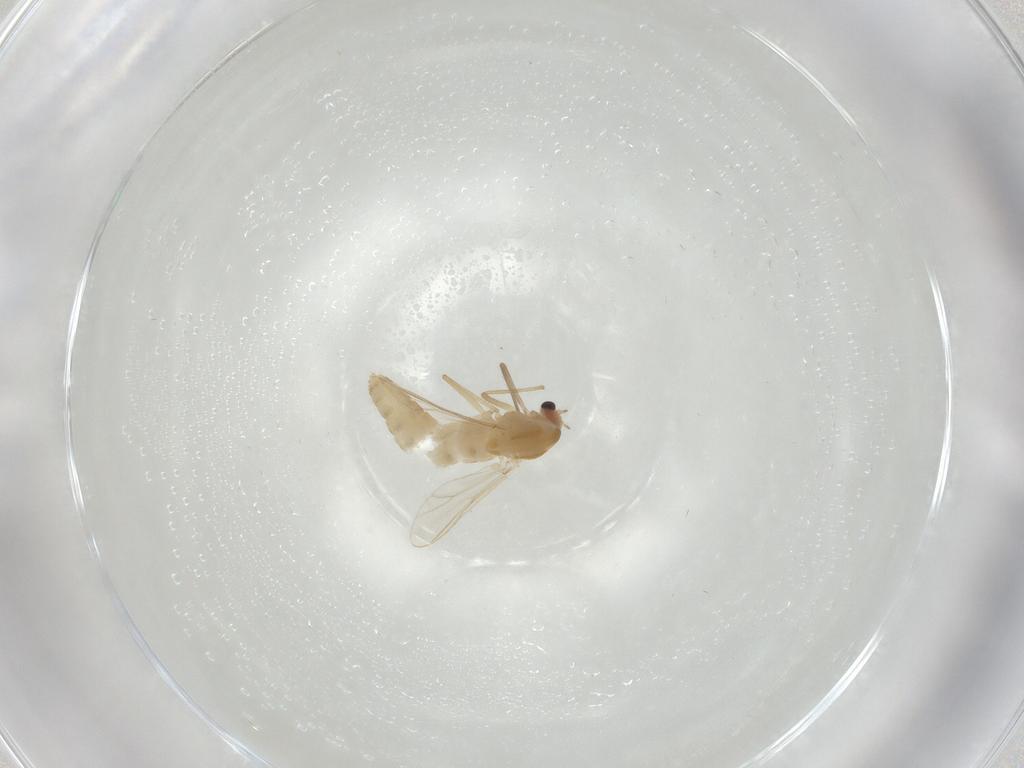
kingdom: Animalia
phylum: Arthropoda
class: Insecta
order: Diptera
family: Chironomidae
